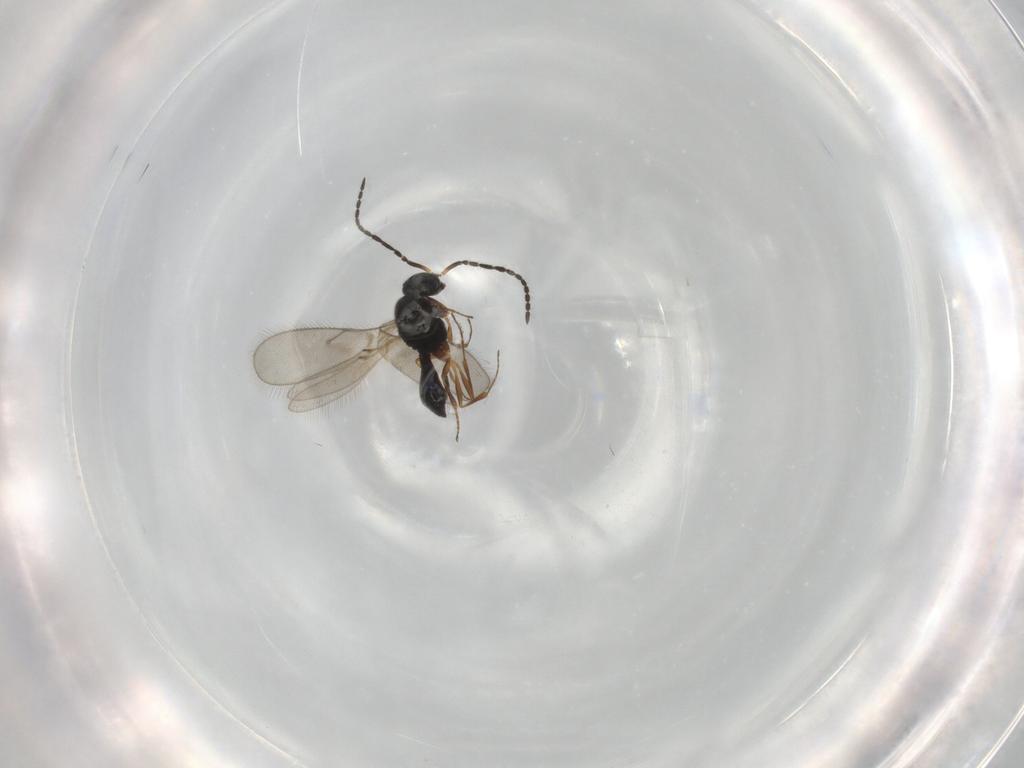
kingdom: Animalia
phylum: Arthropoda
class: Insecta
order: Hymenoptera
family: Scelionidae
